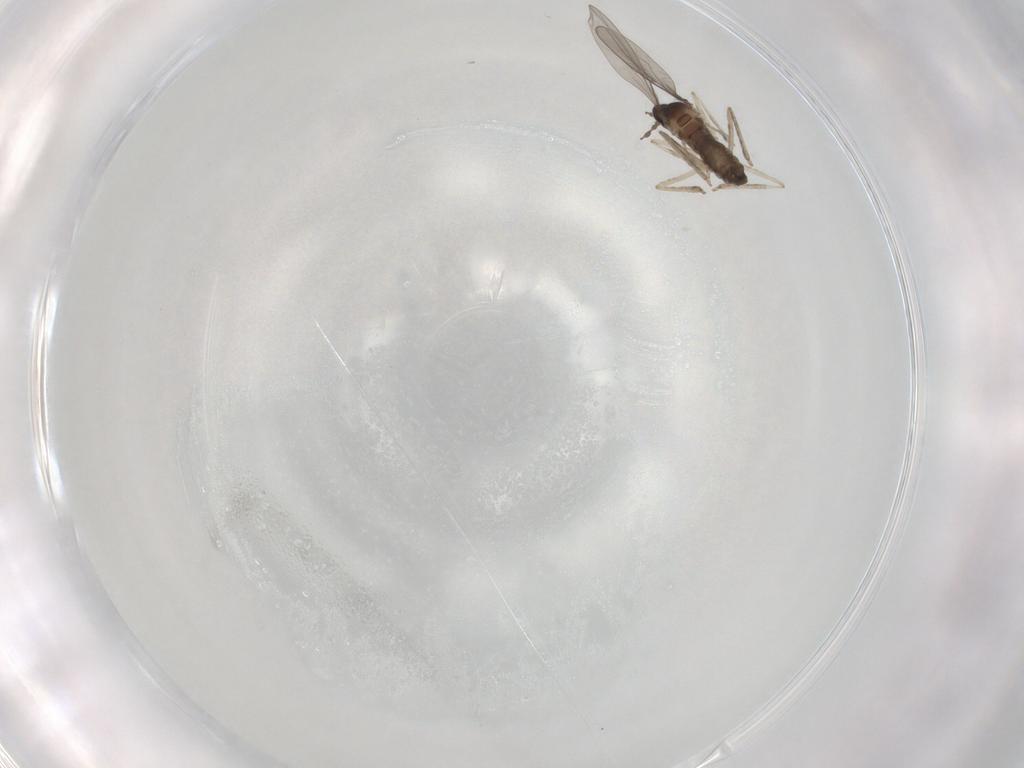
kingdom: Animalia
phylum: Arthropoda
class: Insecta
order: Diptera
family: Cecidomyiidae
